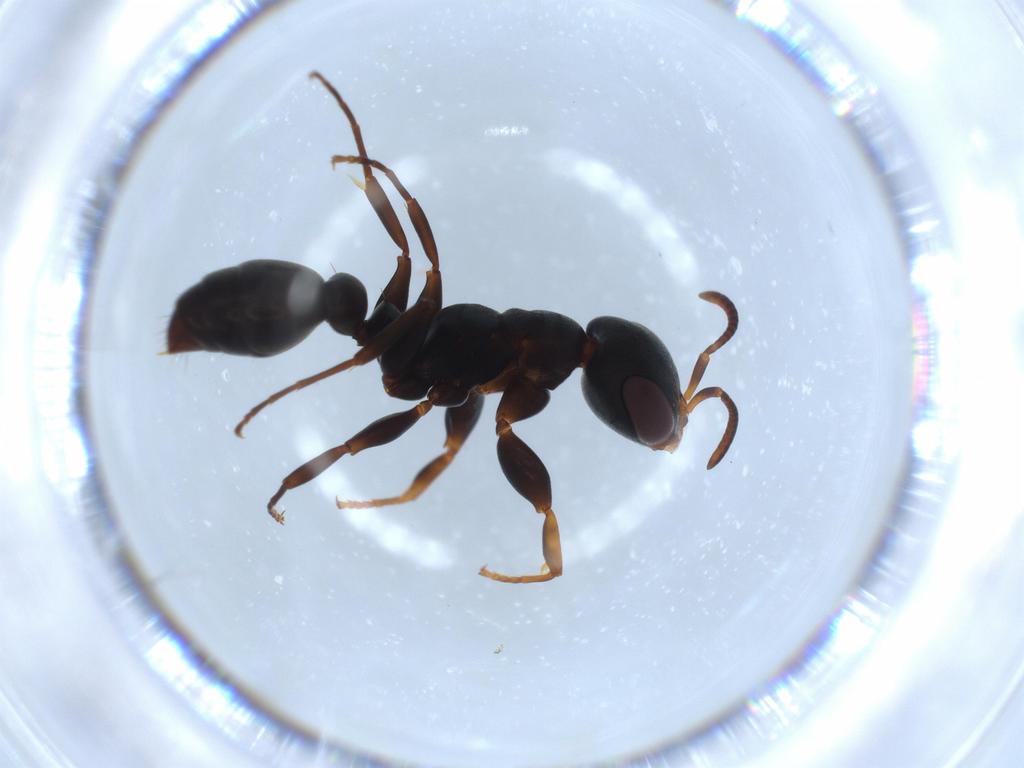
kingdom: Animalia
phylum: Arthropoda
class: Insecta
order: Hymenoptera
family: Formicidae
